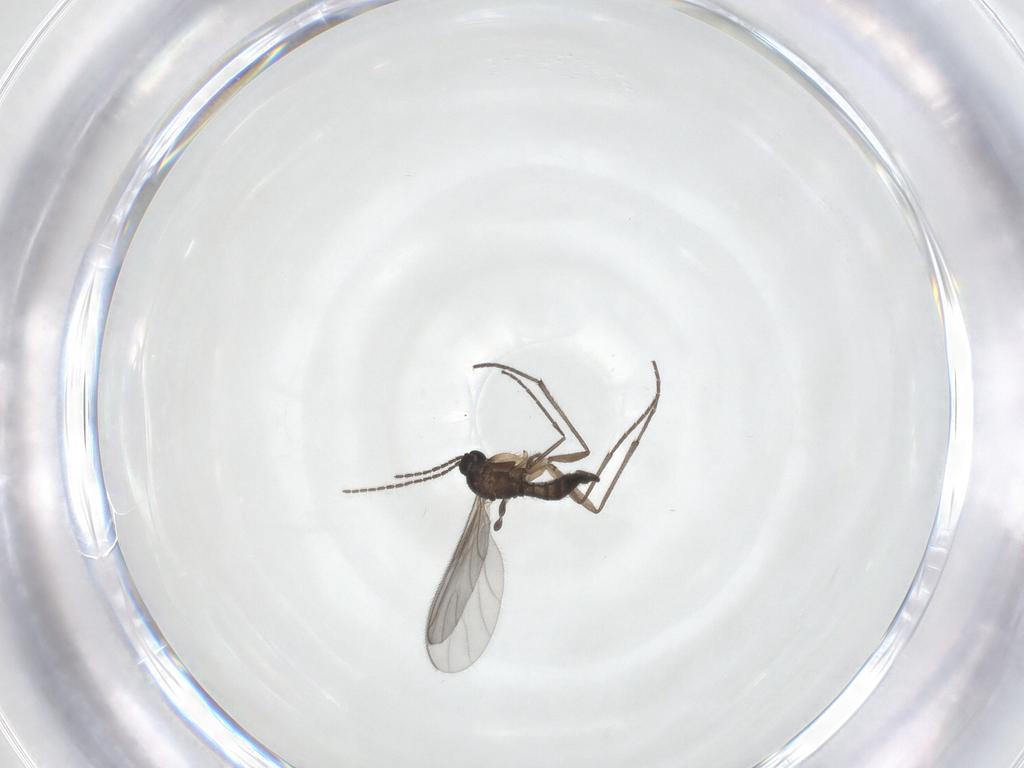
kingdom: Animalia
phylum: Arthropoda
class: Insecta
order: Diptera
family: Sciaridae
